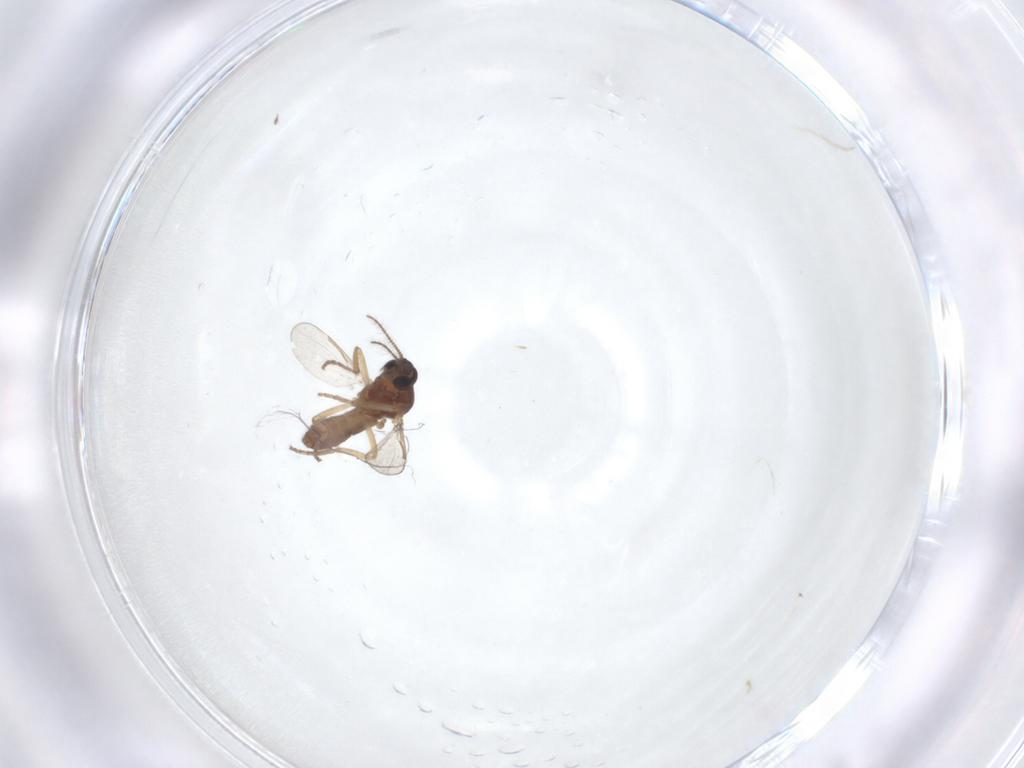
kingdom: Animalia
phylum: Arthropoda
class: Insecta
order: Diptera
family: Ceratopogonidae
